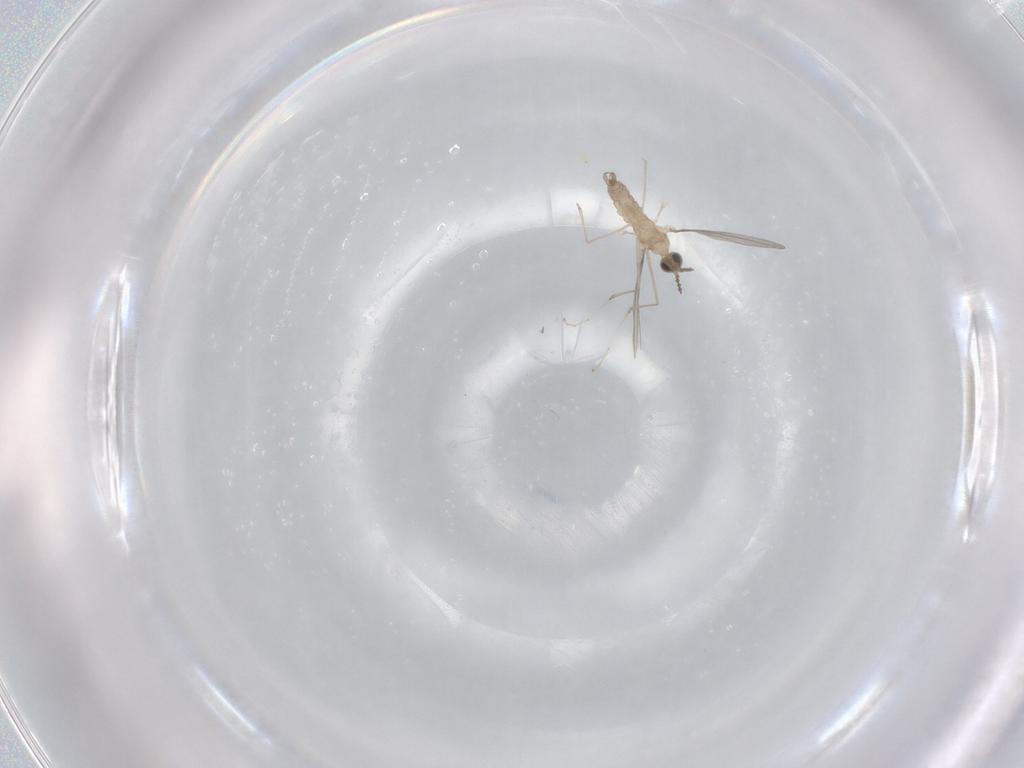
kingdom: Animalia
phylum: Arthropoda
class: Insecta
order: Diptera
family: Cecidomyiidae
